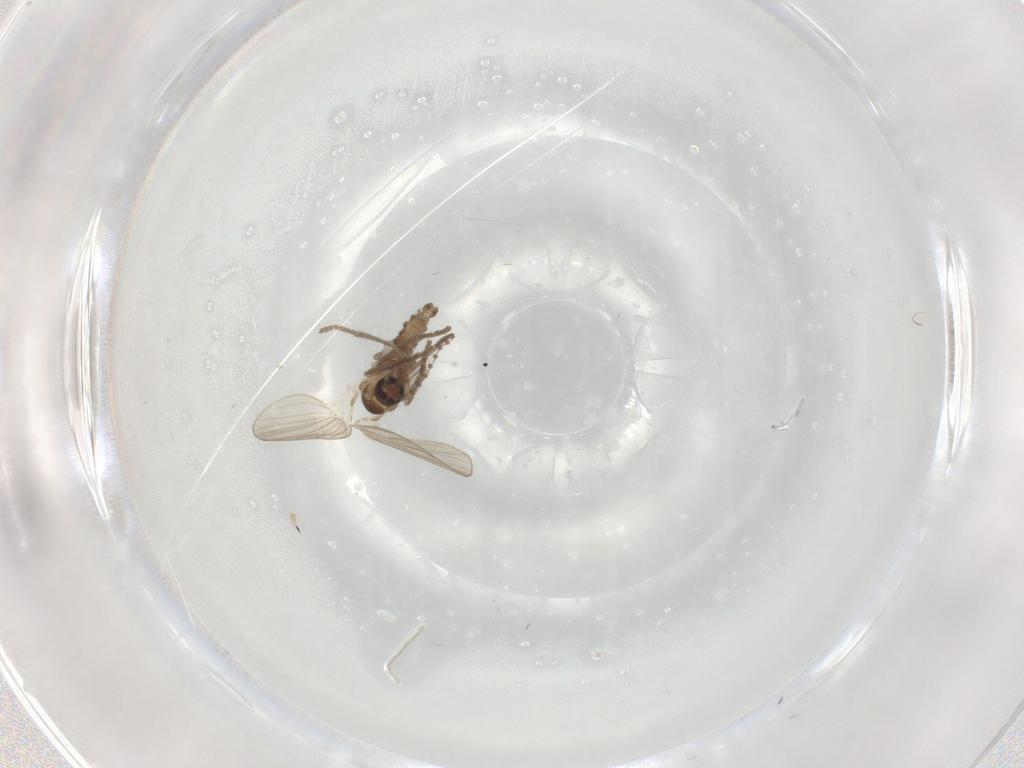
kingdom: Animalia
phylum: Arthropoda
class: Insecta
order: Diptera
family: Psychodidae
